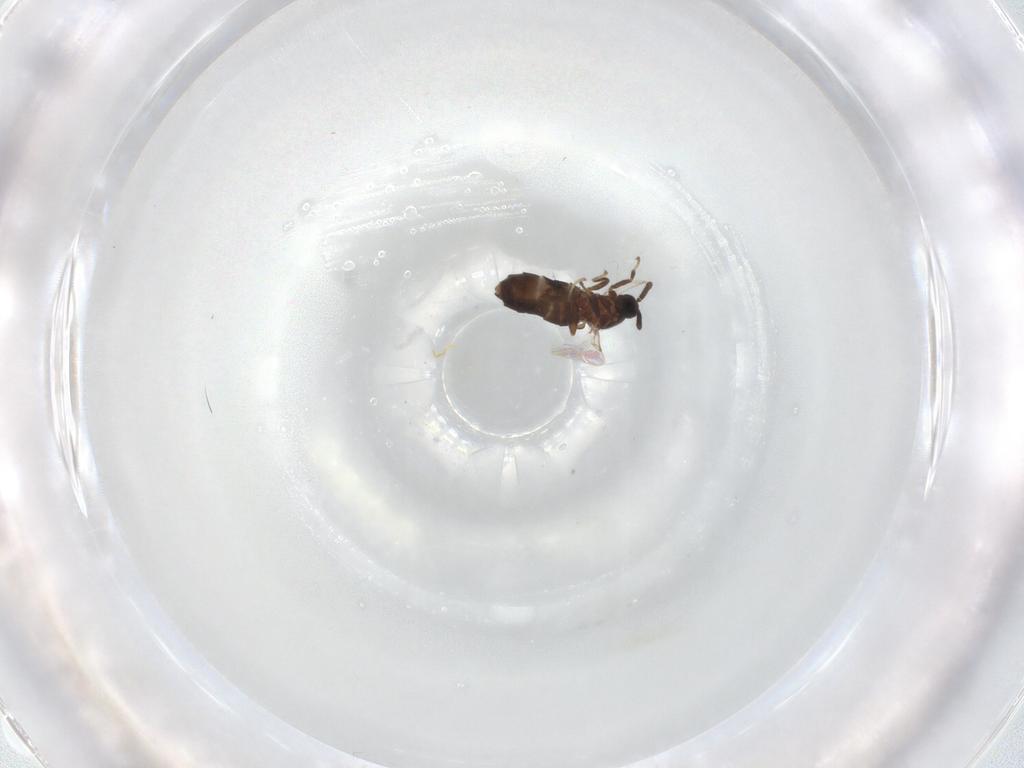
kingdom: Animalia
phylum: Arthropoda
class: Insecta
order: Diptera
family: Scatopsidae
